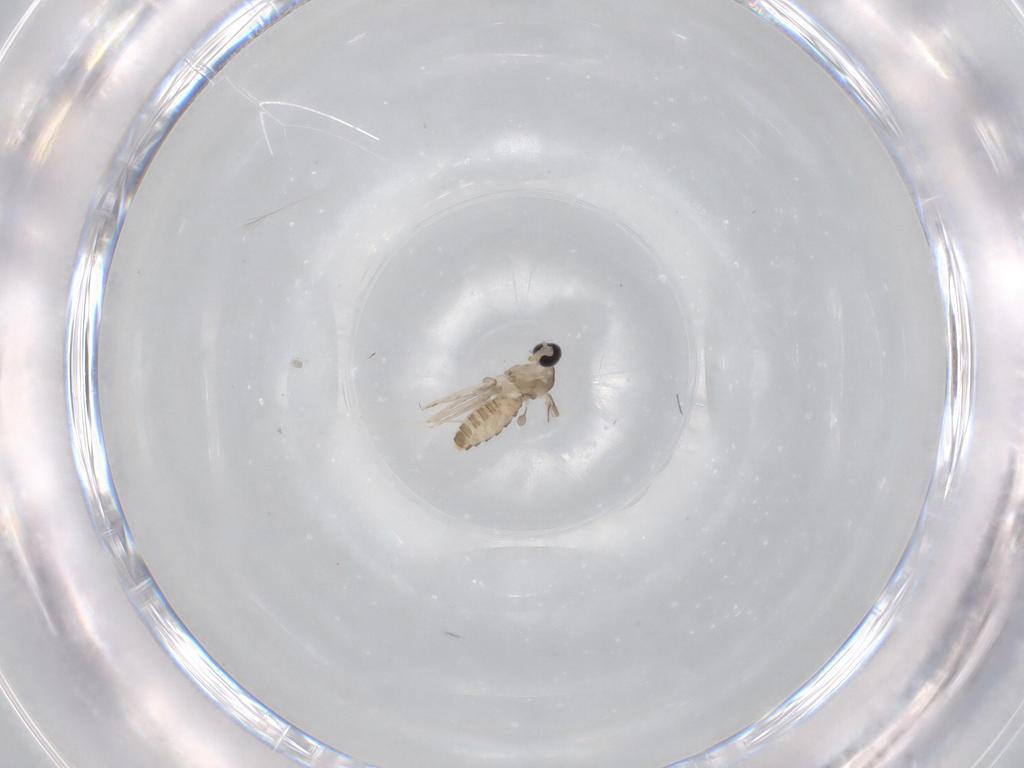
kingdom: Animalia
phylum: Arthropoda
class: Insecta
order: Diptera
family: Cecidomyiidae
